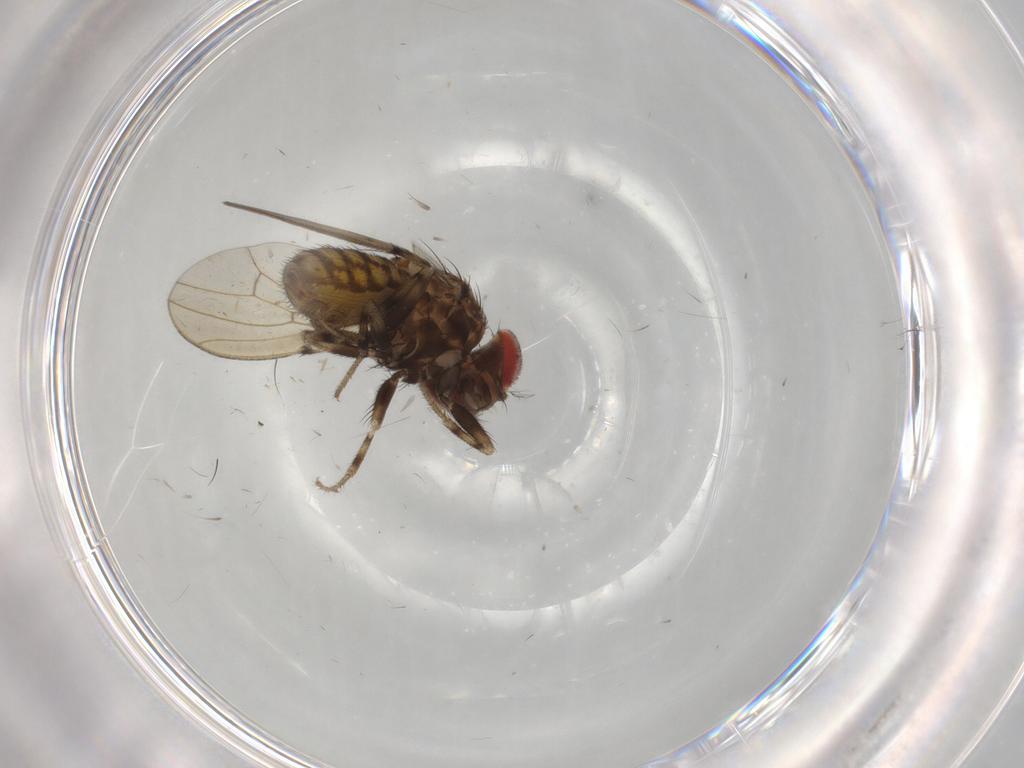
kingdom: Animalia
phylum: Arthropoda
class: Insecta
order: Diptera
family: Drosophilidae
